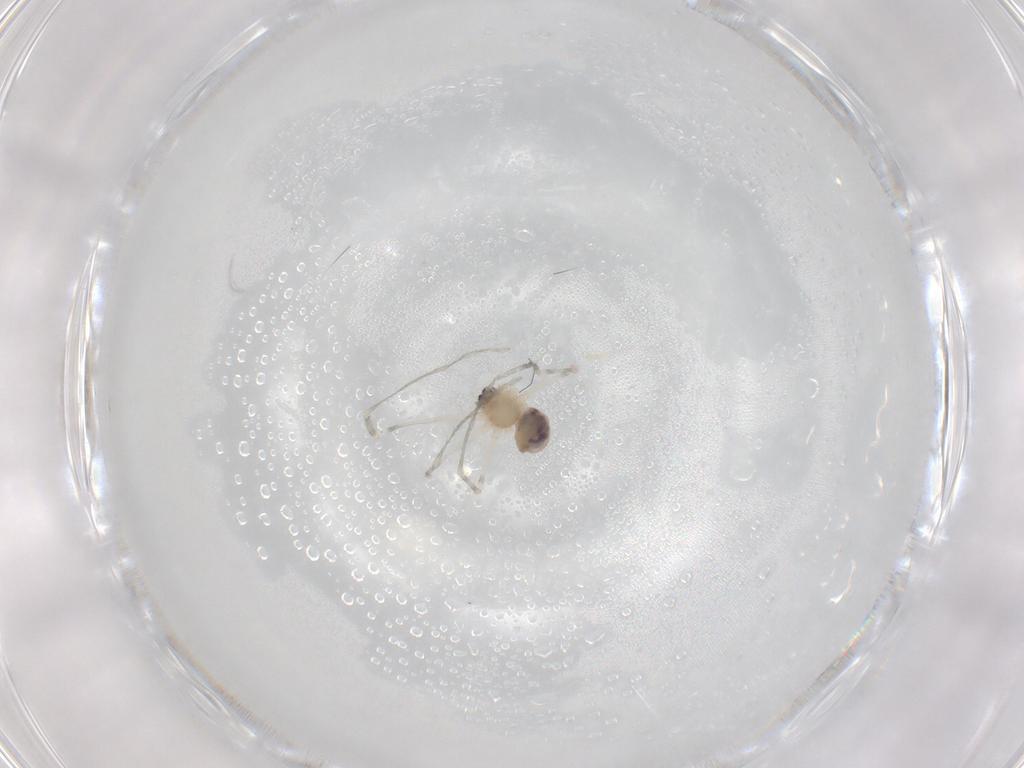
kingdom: Animalia
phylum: Arthropoda
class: Arachnida
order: Araneae
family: Pholcidae
